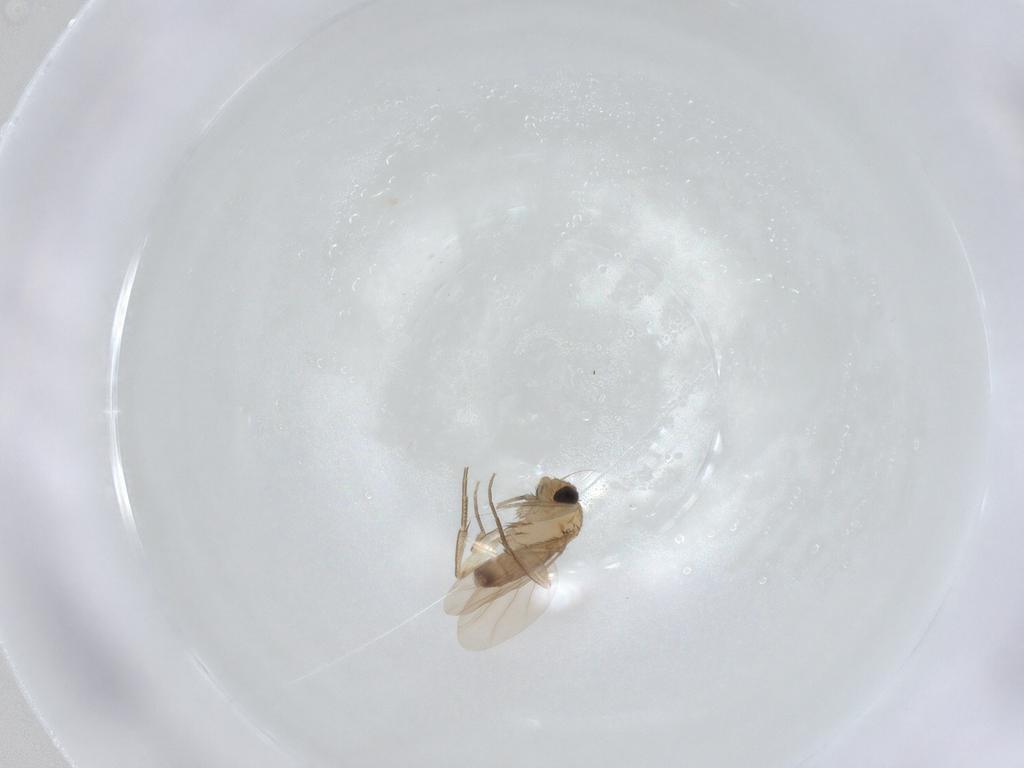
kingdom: Animalia
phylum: Arthropoda
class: Insecta
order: Diptera
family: Phoridae
